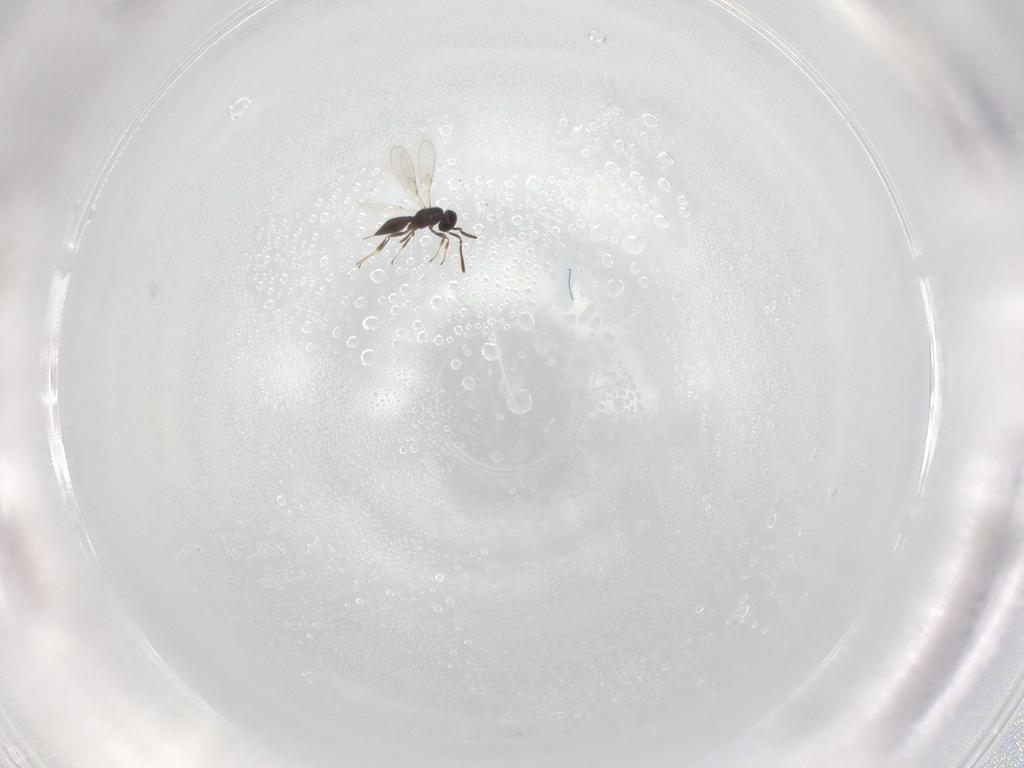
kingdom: Animalia
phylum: Arthropoda
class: Insecta
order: Hymenoptera
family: Scelionidae
